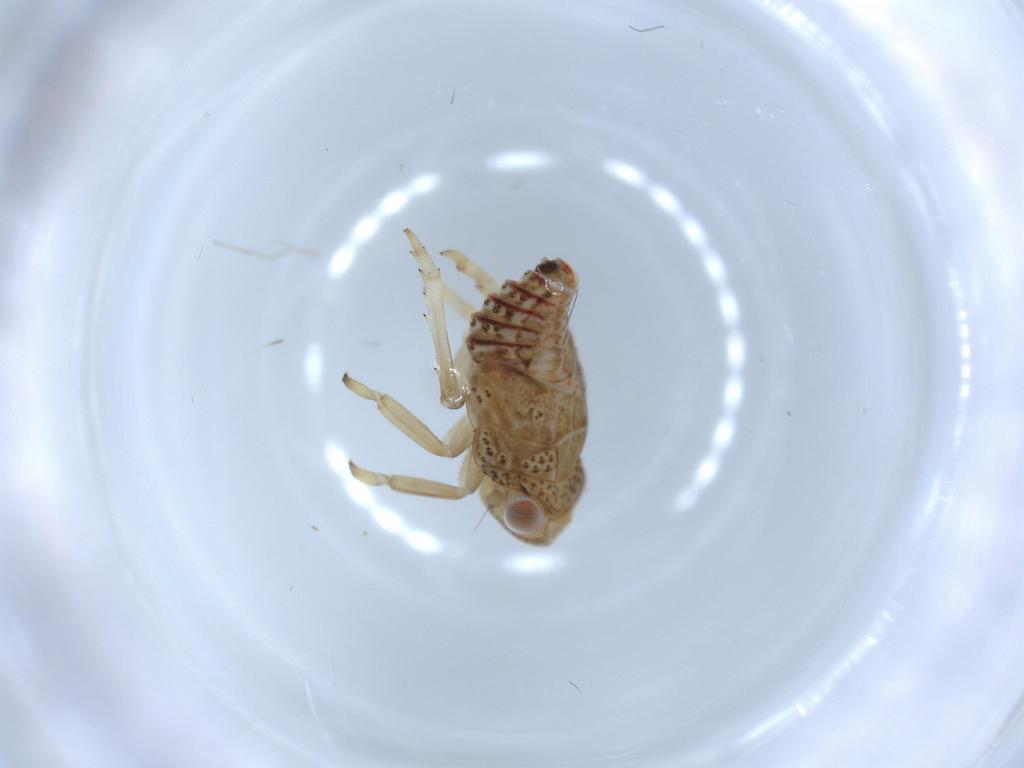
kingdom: Animalia
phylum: Arthropoda
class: Insecta
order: Hemiptera
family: Issidae
